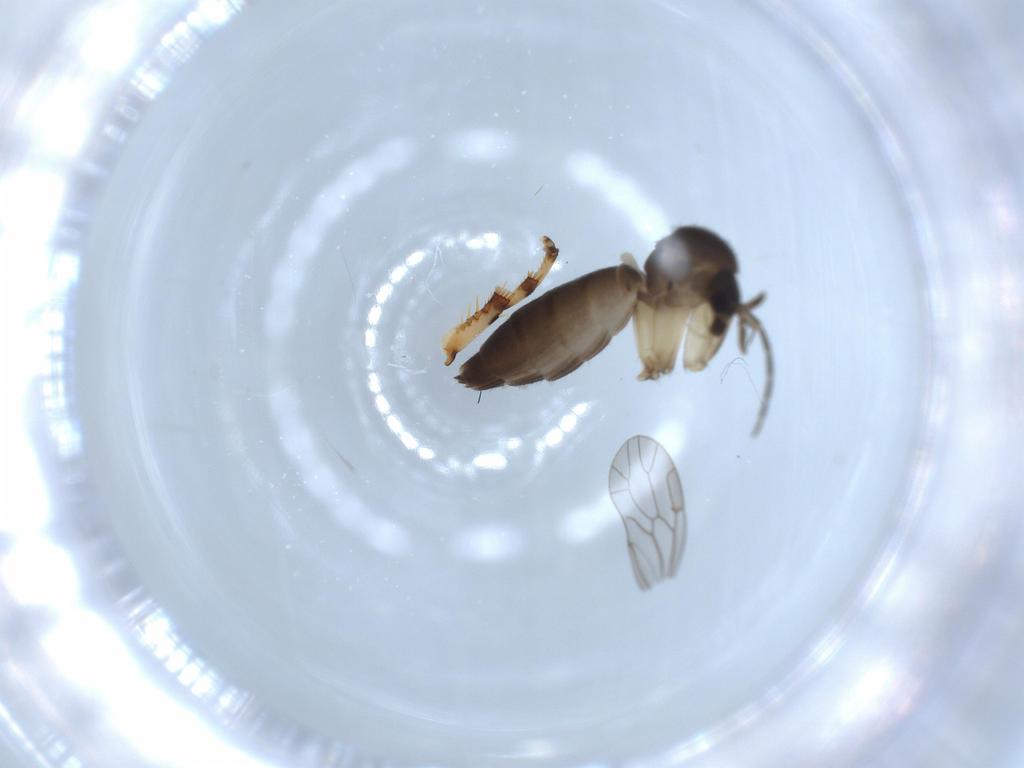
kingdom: Animalia
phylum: Arthropoda
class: Insecta
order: Diptera
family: Mycetophilidae
